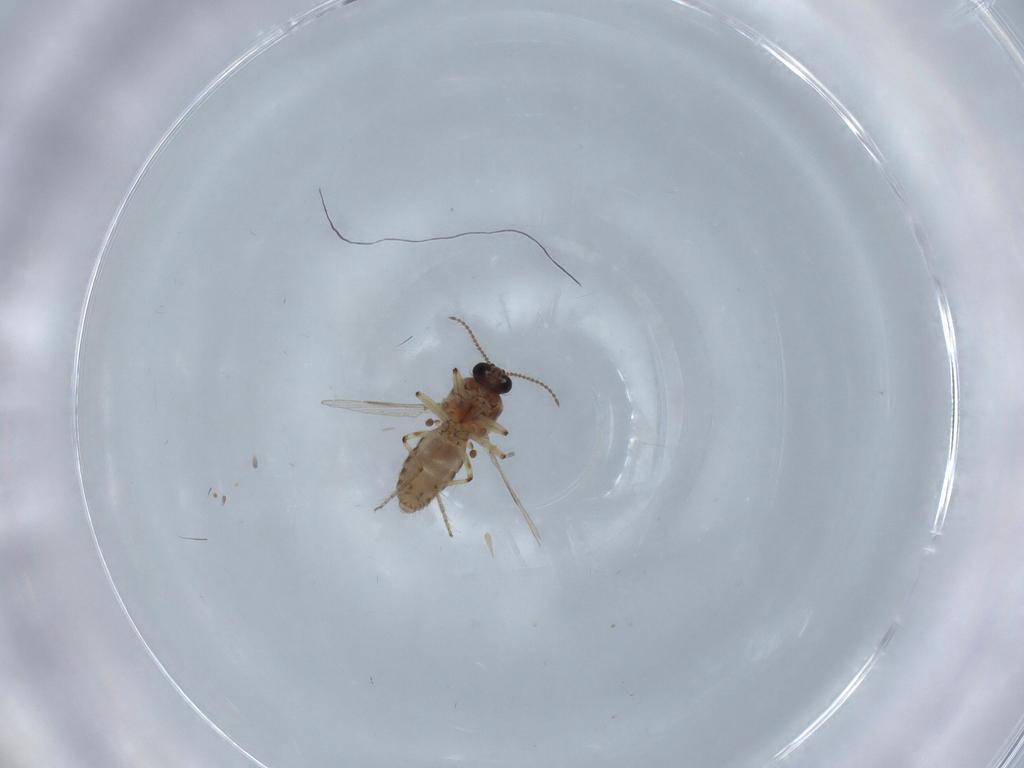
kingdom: Animalia
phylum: Arthropoda
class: Insecta
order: Diptera
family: Ceratopogonidae
